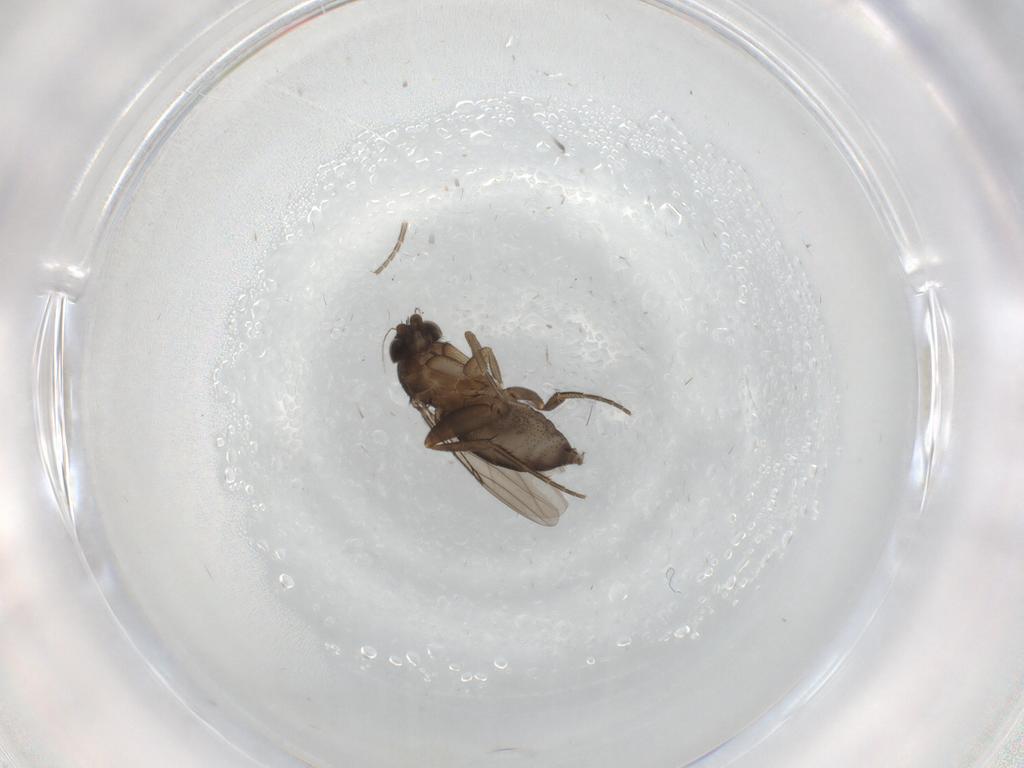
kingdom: Animalia
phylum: Arthropoda
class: Insecta
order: Diptera
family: Phoridae
